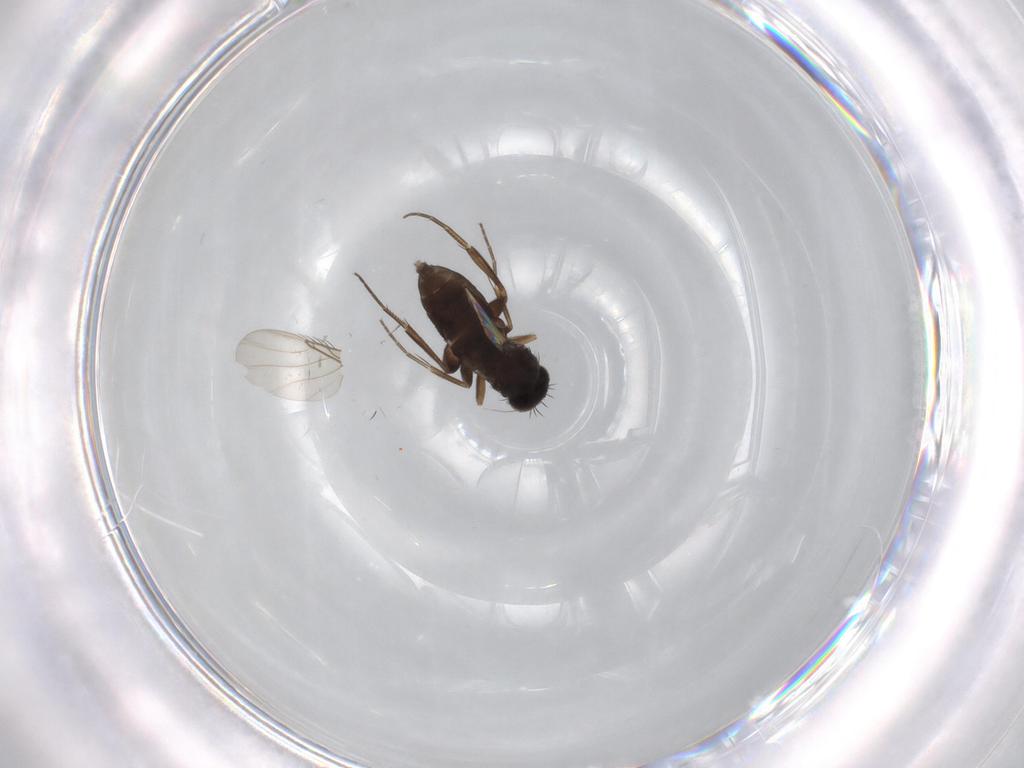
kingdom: Animalia
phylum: Arthropoda
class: Insecta
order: Diptera
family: Phoridae
